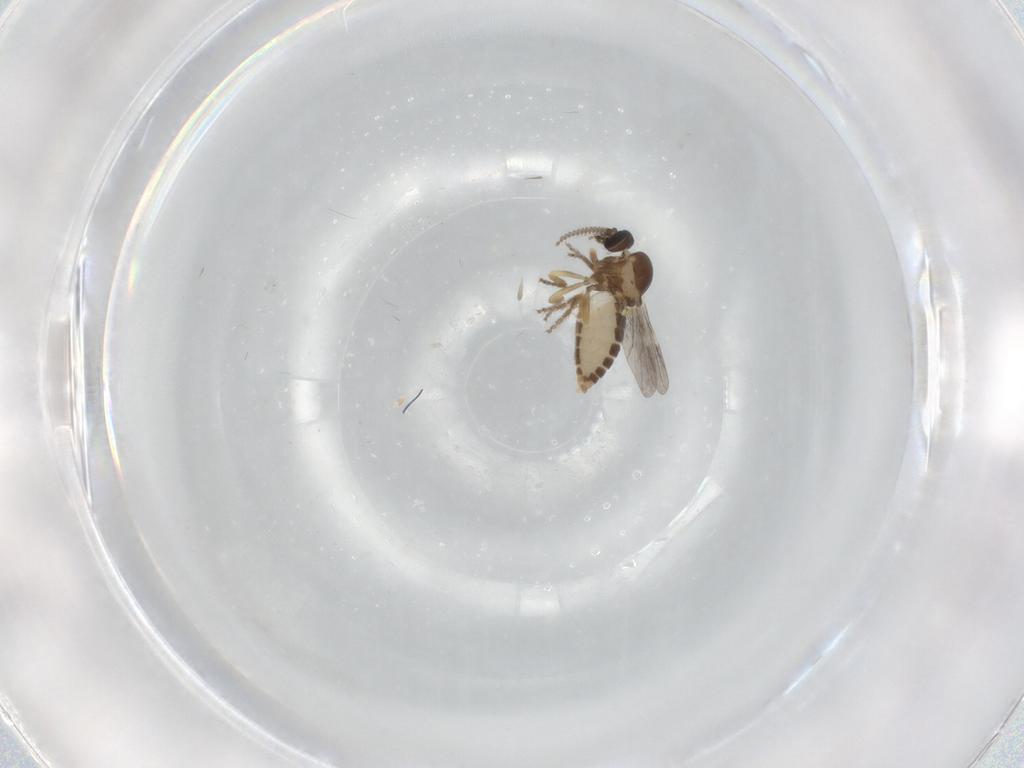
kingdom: Animalia
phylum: Arthropoda
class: Insecta
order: Diptera
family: Ceratopogonidae
